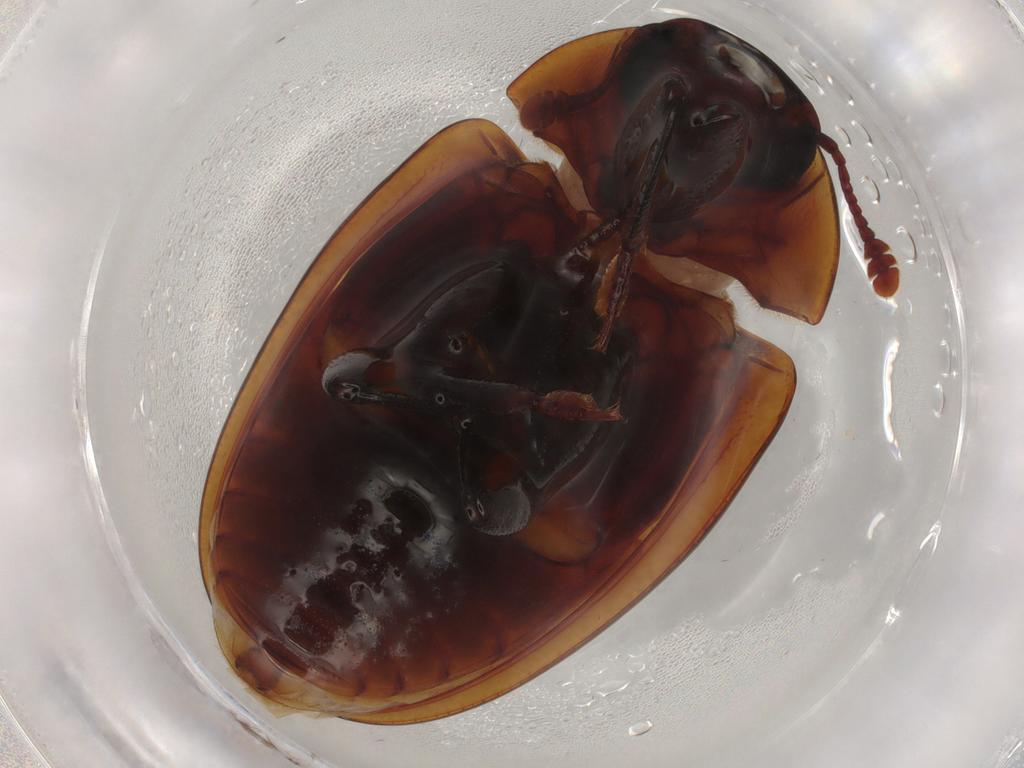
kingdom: Animalia
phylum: Arthropoda
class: Insecta
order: Coleoptera
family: Zopheridae
